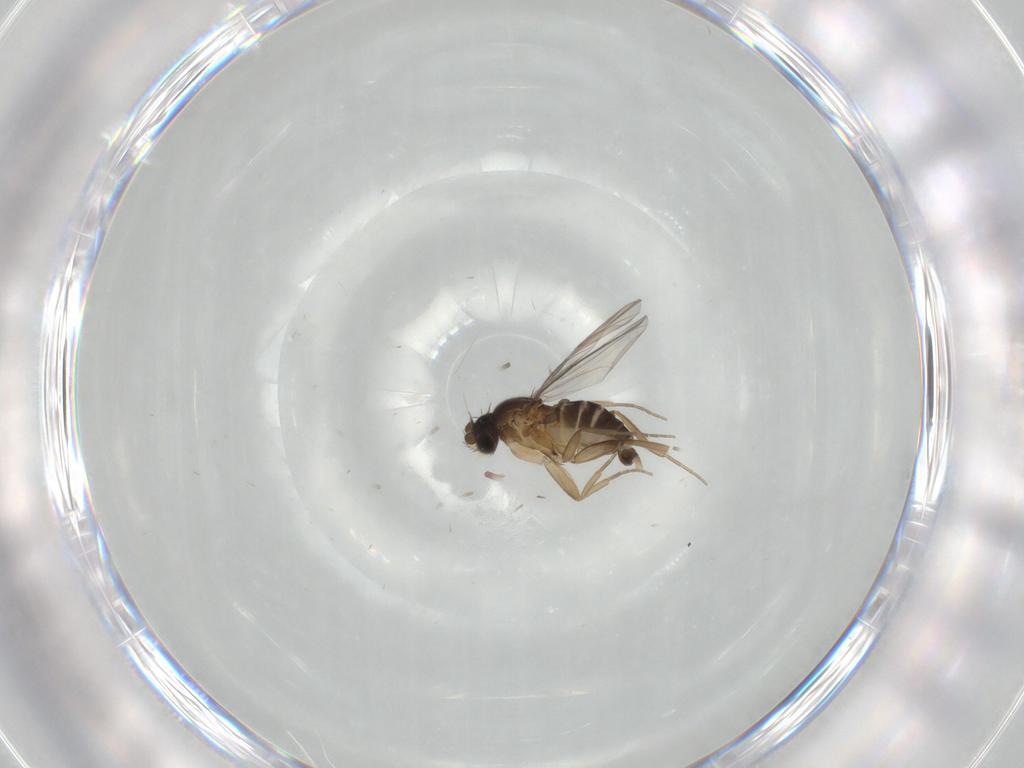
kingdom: Animalia
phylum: Arthropoda
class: Insecta
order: Diptera
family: Phoridae
